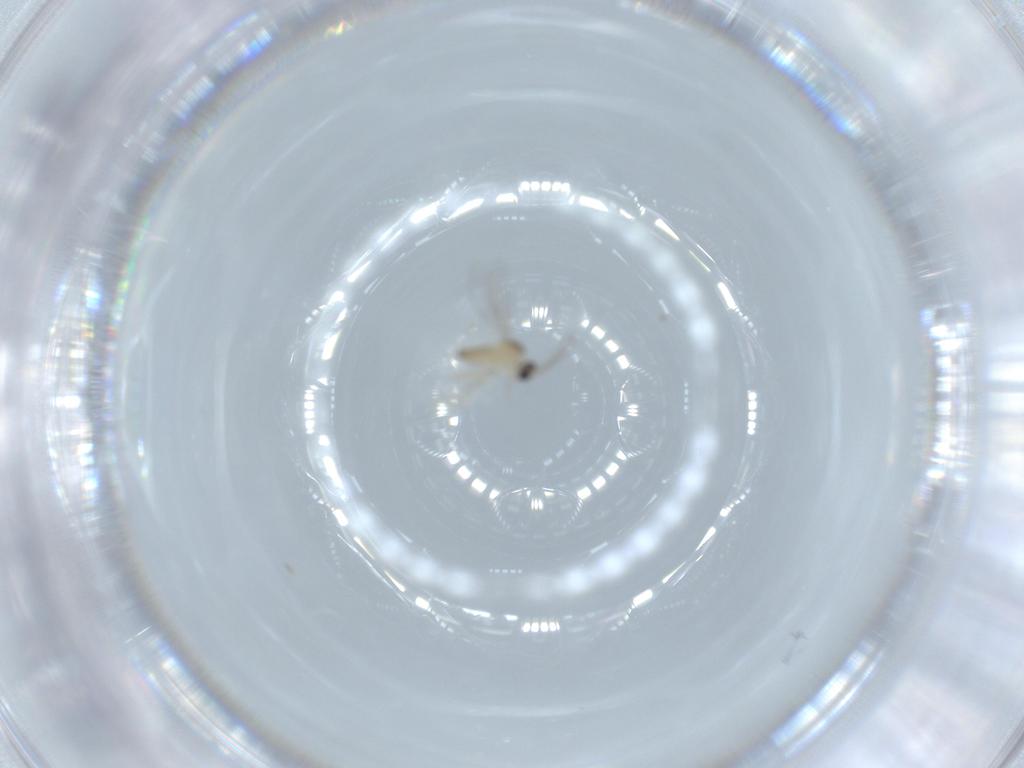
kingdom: Animalia
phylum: Arthropoda
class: Insecta
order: Diptera
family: Cecidomyiidae
